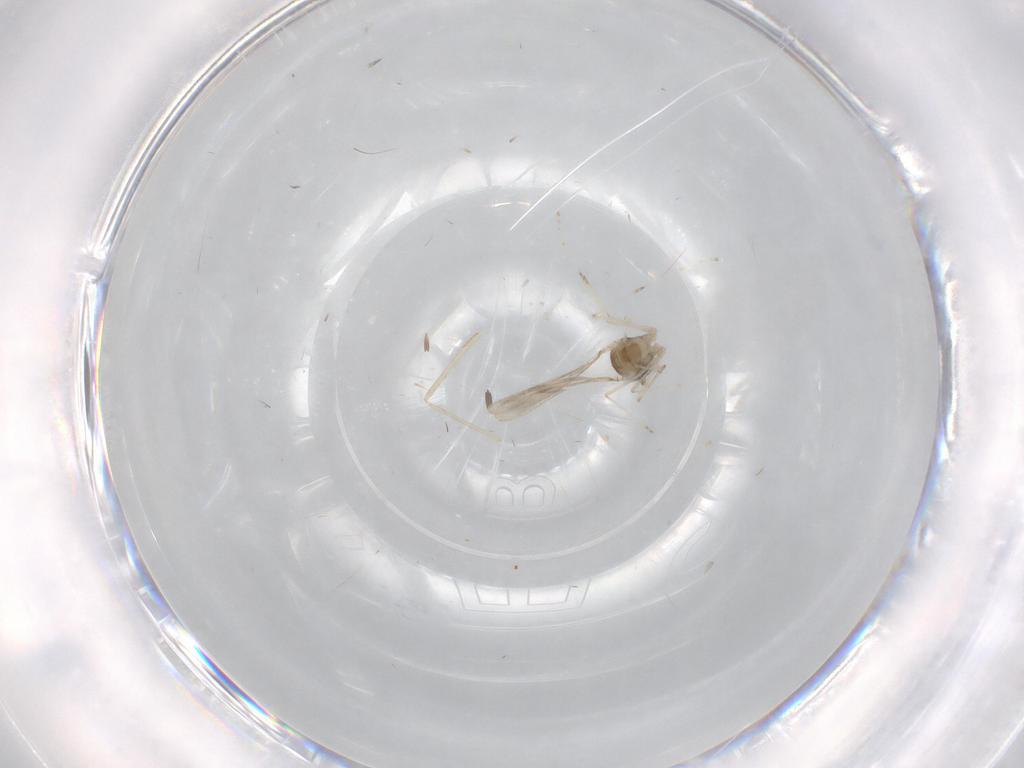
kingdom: Animalia
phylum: Arthropoda
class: Insecta
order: Diptera
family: Cecidomyiidae
